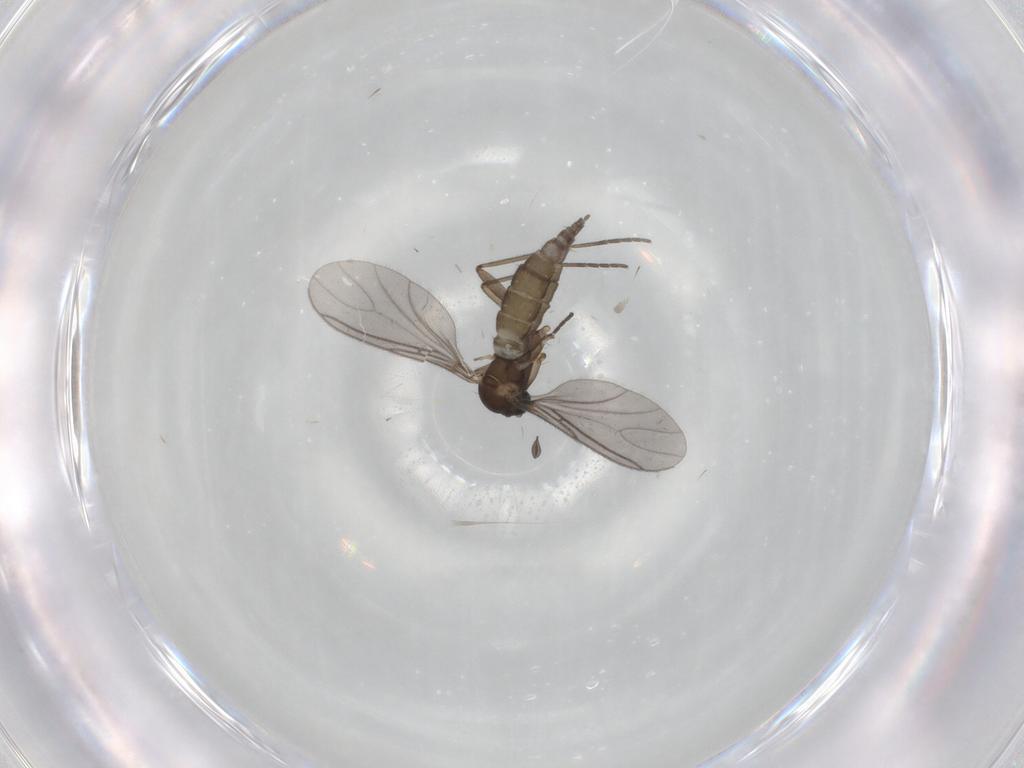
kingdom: Animalia
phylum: Arthropoda
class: Insecta
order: Diptera
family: Sciaridae
